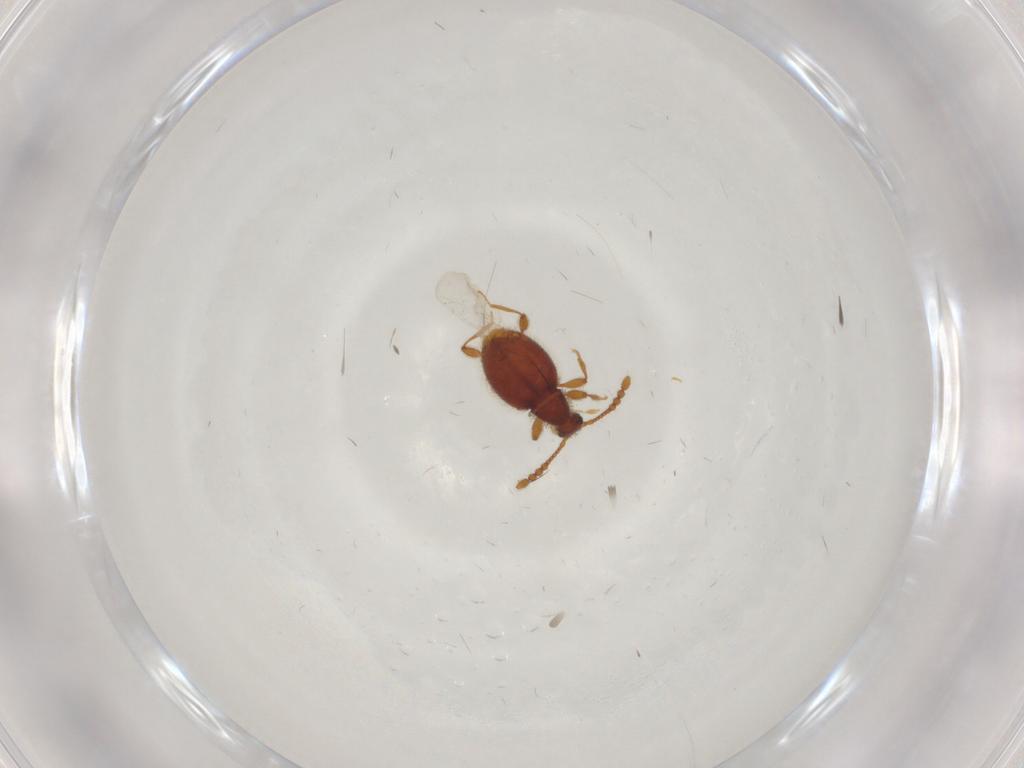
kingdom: Animalia
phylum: Arthropoda
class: Insecta
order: Coleoptera
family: Staphylinidae
